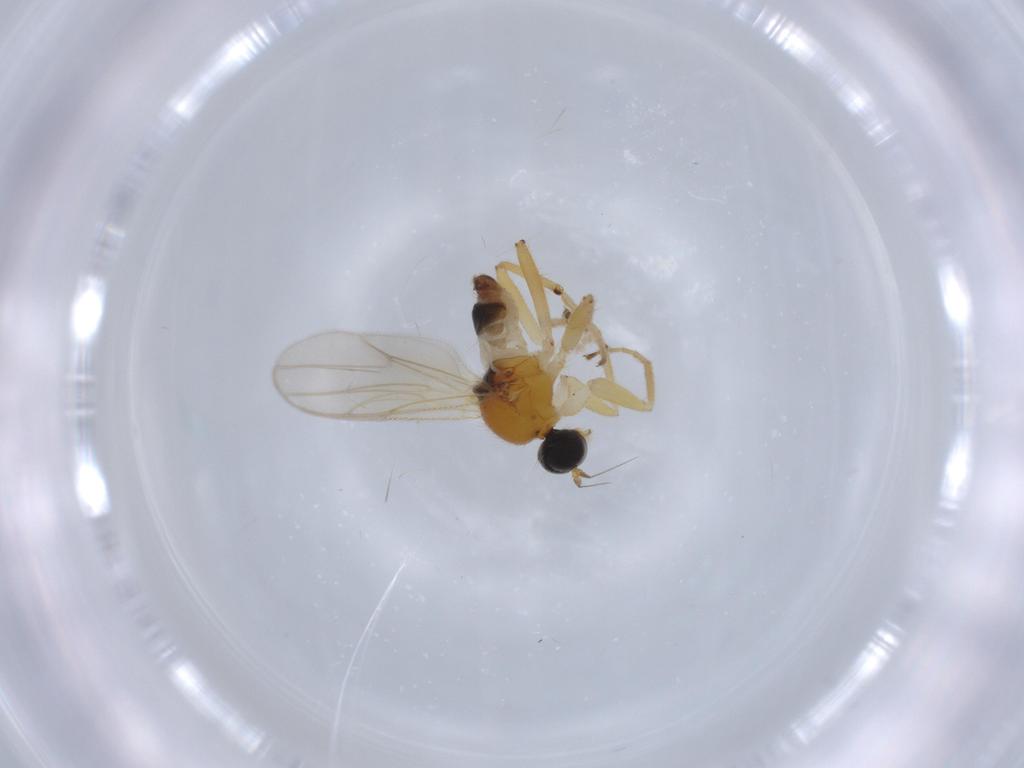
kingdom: Animalia
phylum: Arthropoda
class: Insecta
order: Diptera
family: Hybotidae
